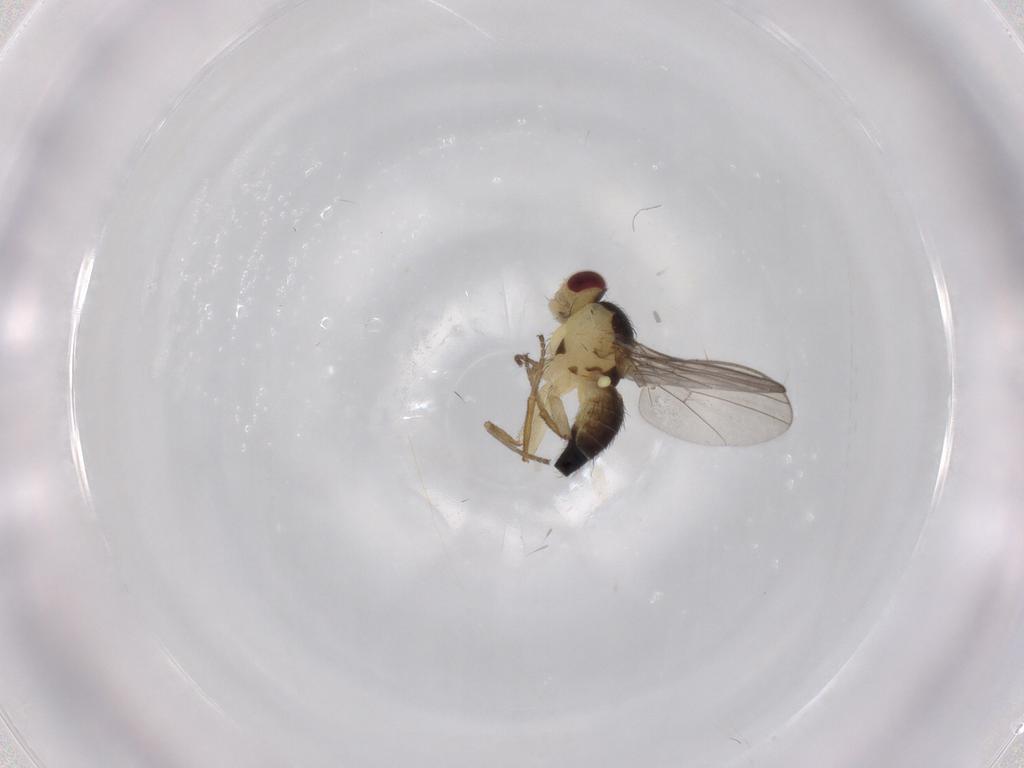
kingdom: Animalia
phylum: Arthropoda
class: Insecta
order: Diptera
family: Agromyzidae
